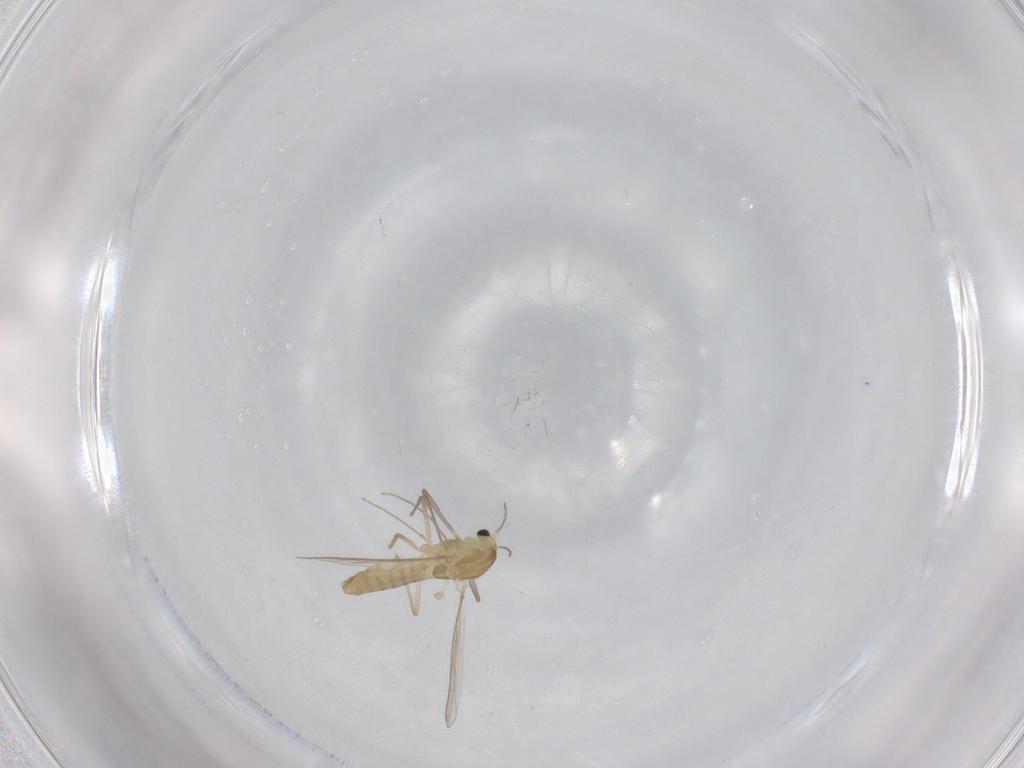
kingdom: Animalia
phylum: Arthropoda
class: Insecta
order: Diptera
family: Chironomidae
